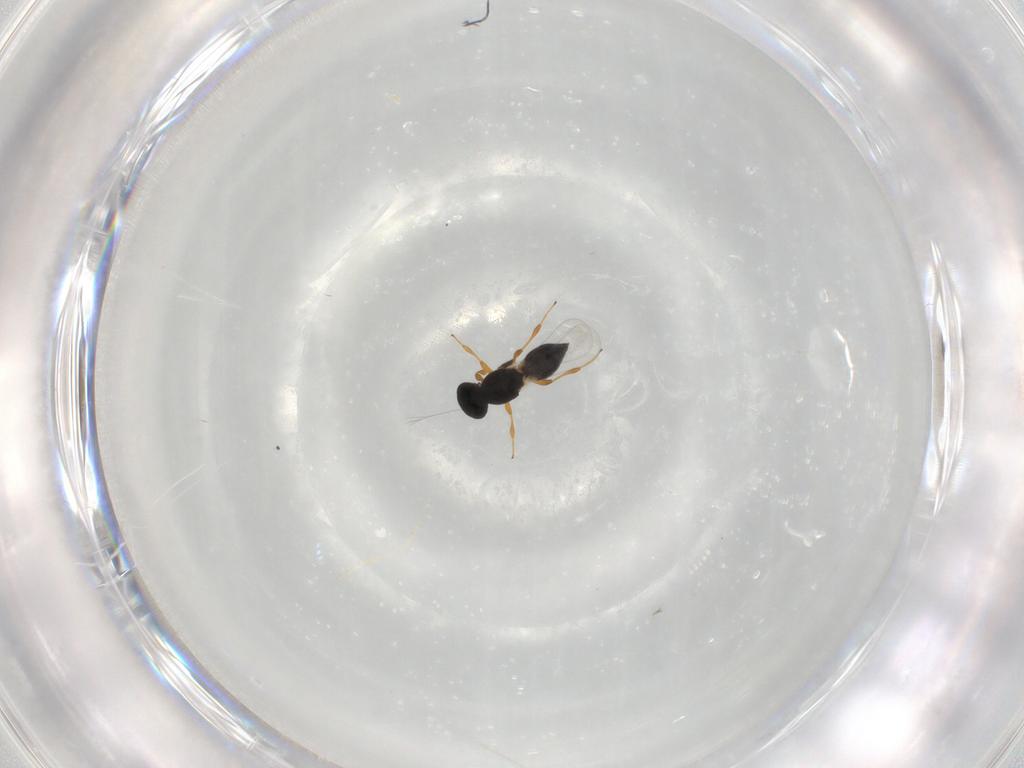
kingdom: Animalia
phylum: Arthropoda
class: Insecta
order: Hymenoptera
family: Platygastridae
